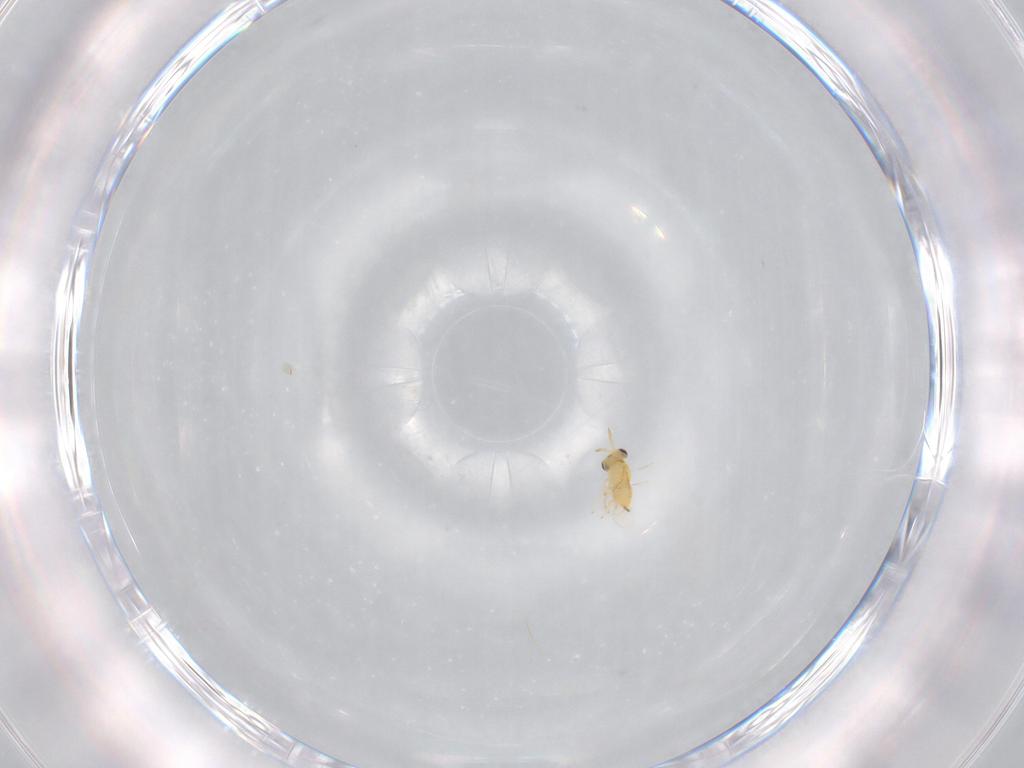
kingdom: Animalia
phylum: Arthropoda
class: Insecta
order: Hymenoptera
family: Aphelinidae
